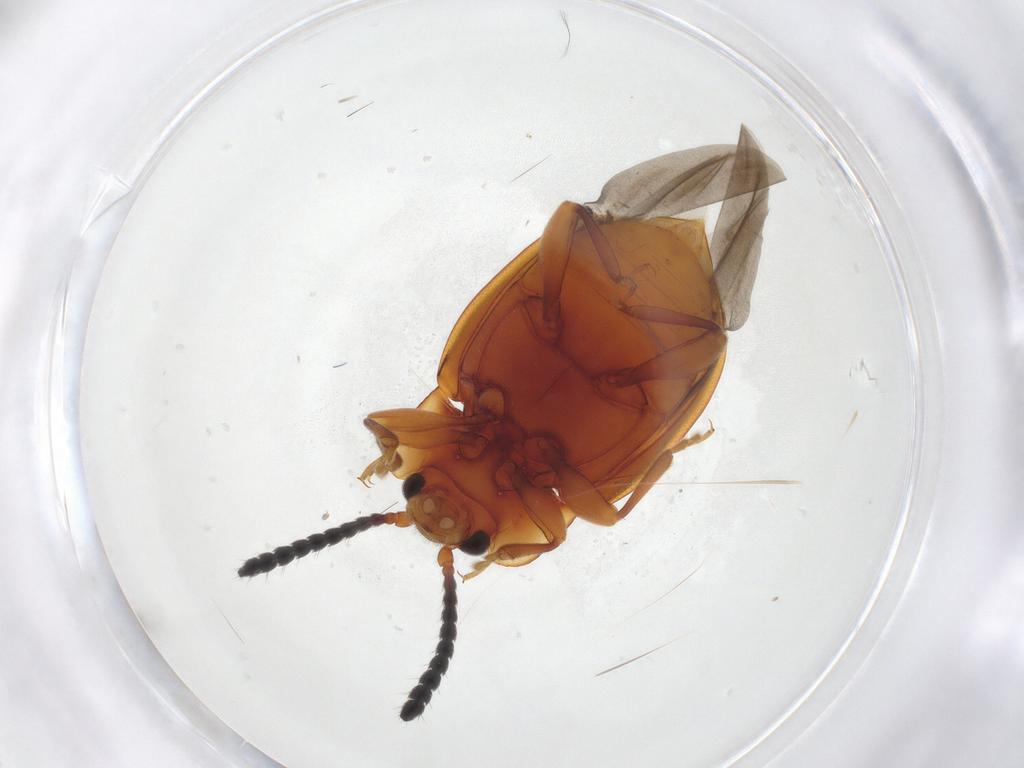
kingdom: Animalia
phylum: Arthropoda
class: Insecta
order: Coleoptera
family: Endomychidae
